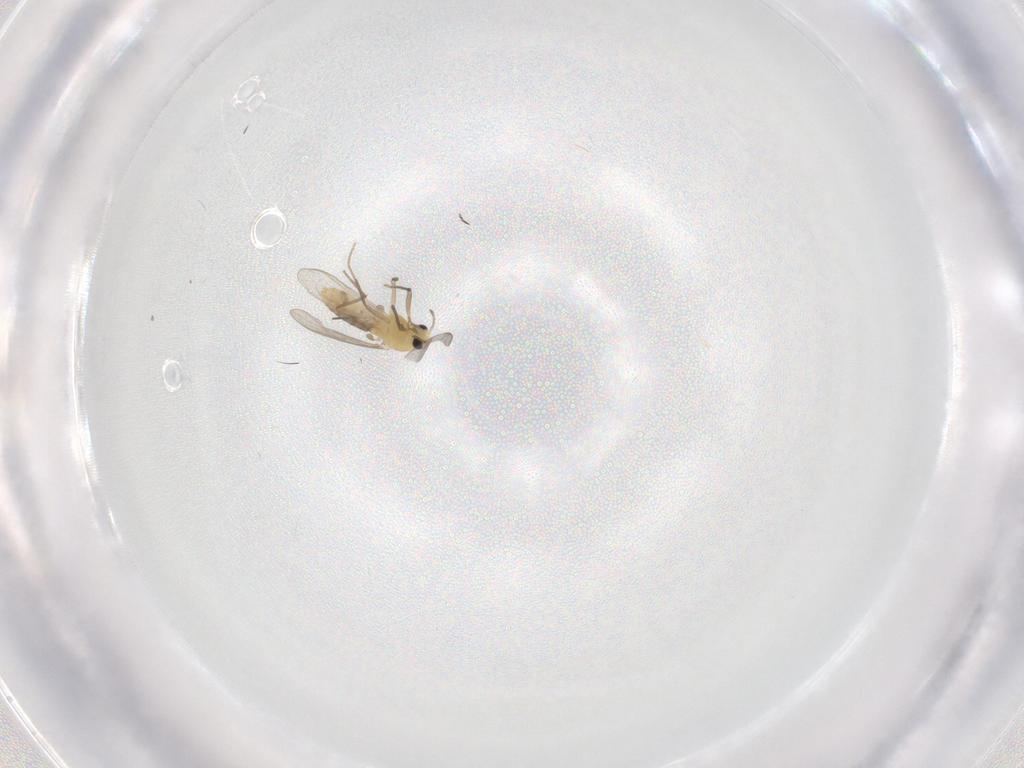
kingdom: Animalia
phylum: Arthropoda
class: Insecta
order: Diptera
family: Cecidomyiidae
